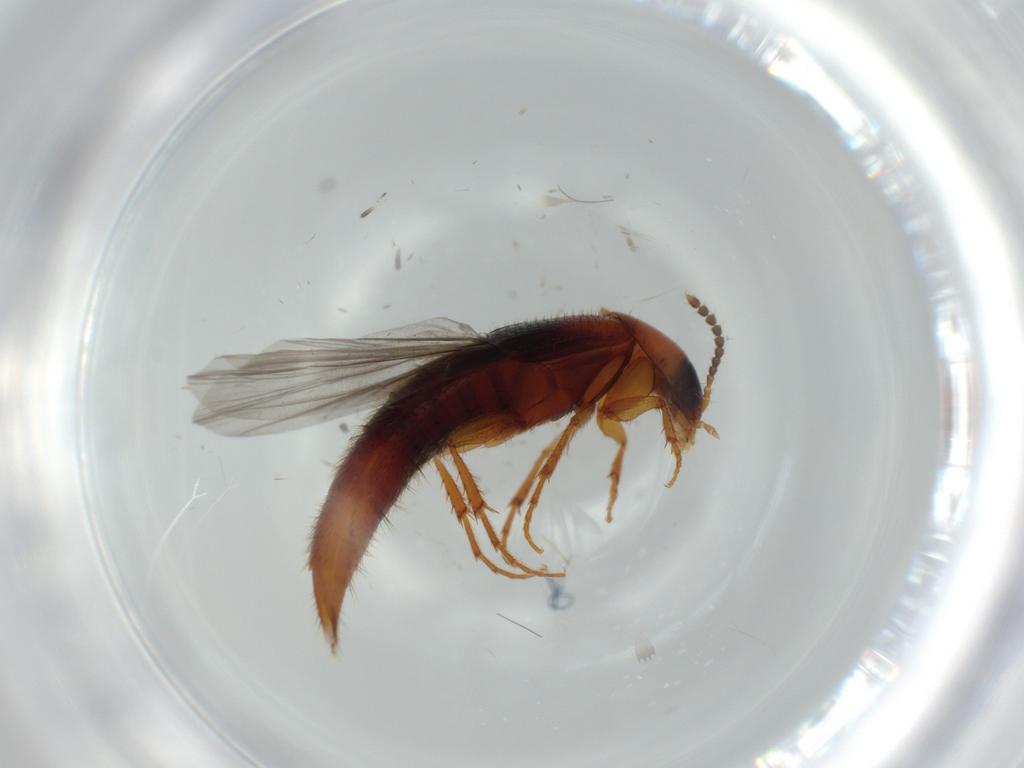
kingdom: Animalia
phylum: Arthropoda
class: Insecta
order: Coleoptera
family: Staphylinidae
